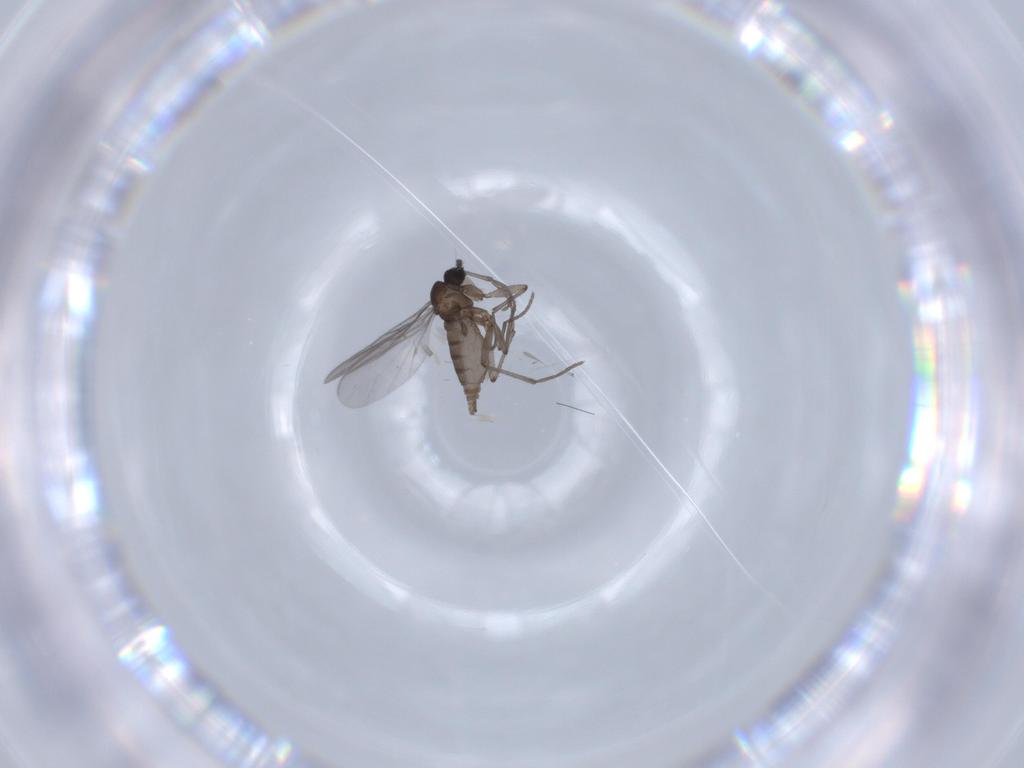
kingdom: Animalia
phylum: Arthropoda
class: Insecta
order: Diptera
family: Sciaridae
